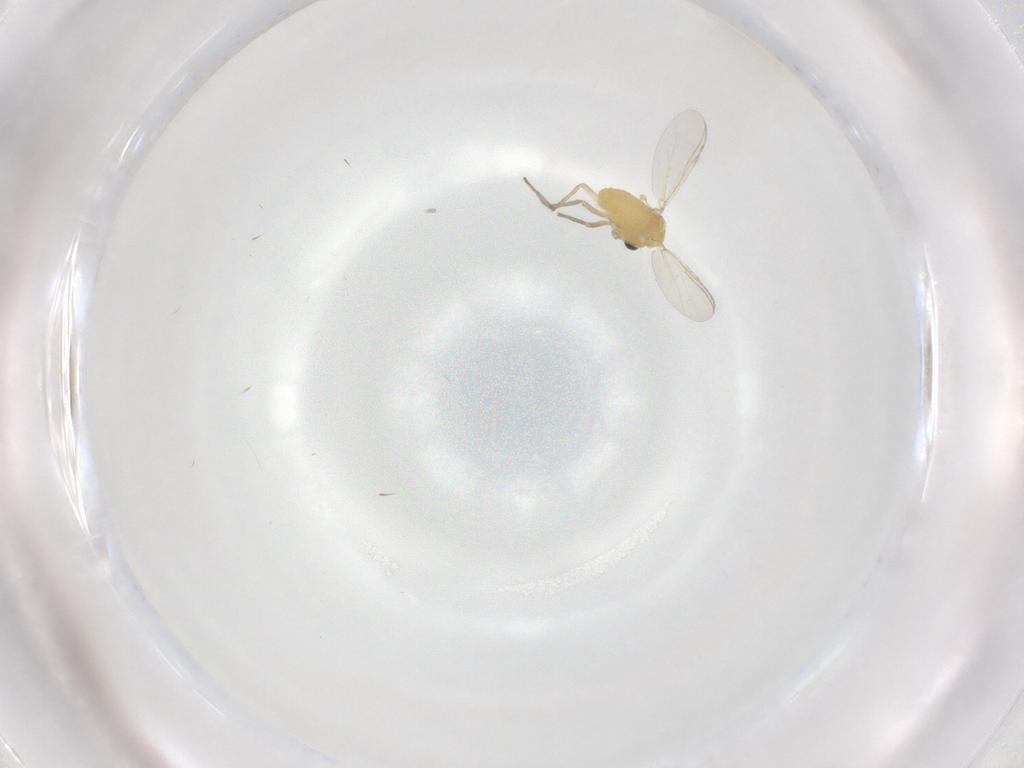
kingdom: Animalia
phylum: Arthropoda
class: Insecta
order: Diptera
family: Chironomidae
